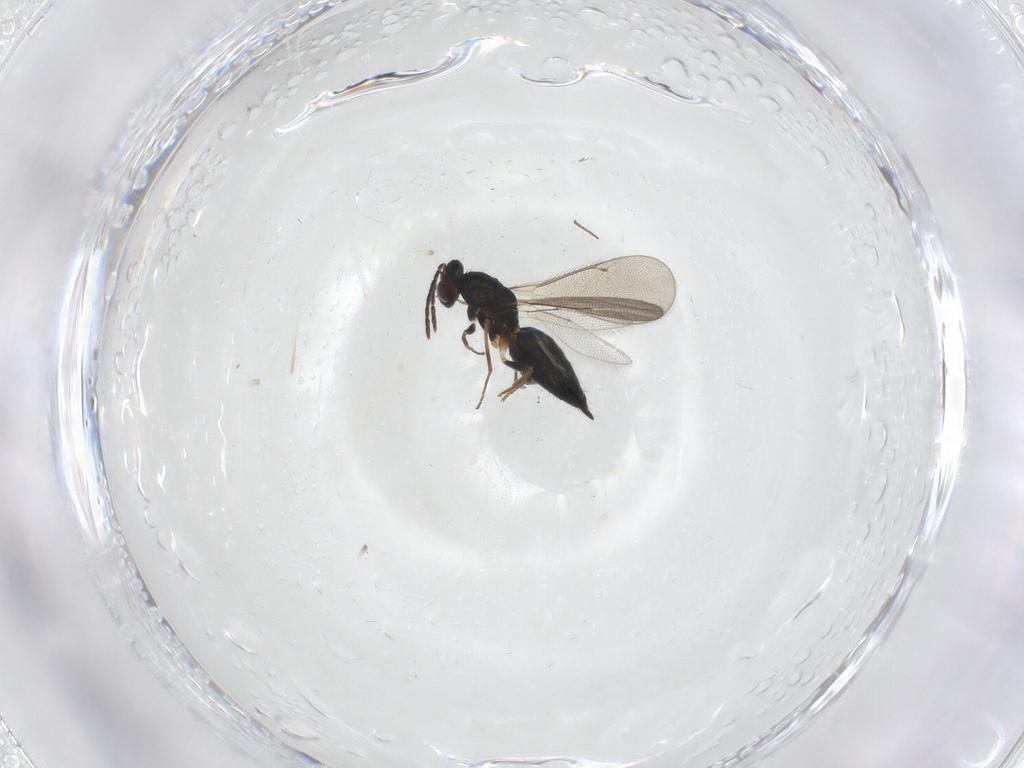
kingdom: Animalia
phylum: Arthropoda
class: Insecta
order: Hymenoptera
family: Eulophidae
